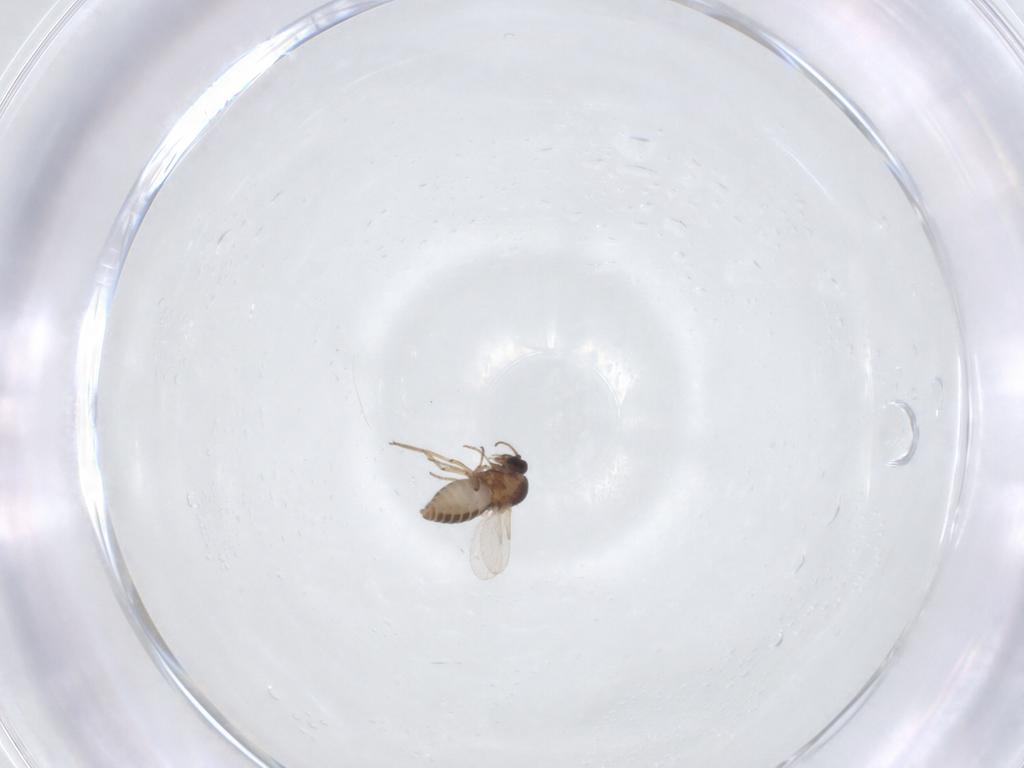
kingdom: Animalia
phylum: Arthropoda
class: Insecta
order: Diptera
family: Ceratopogonidae
